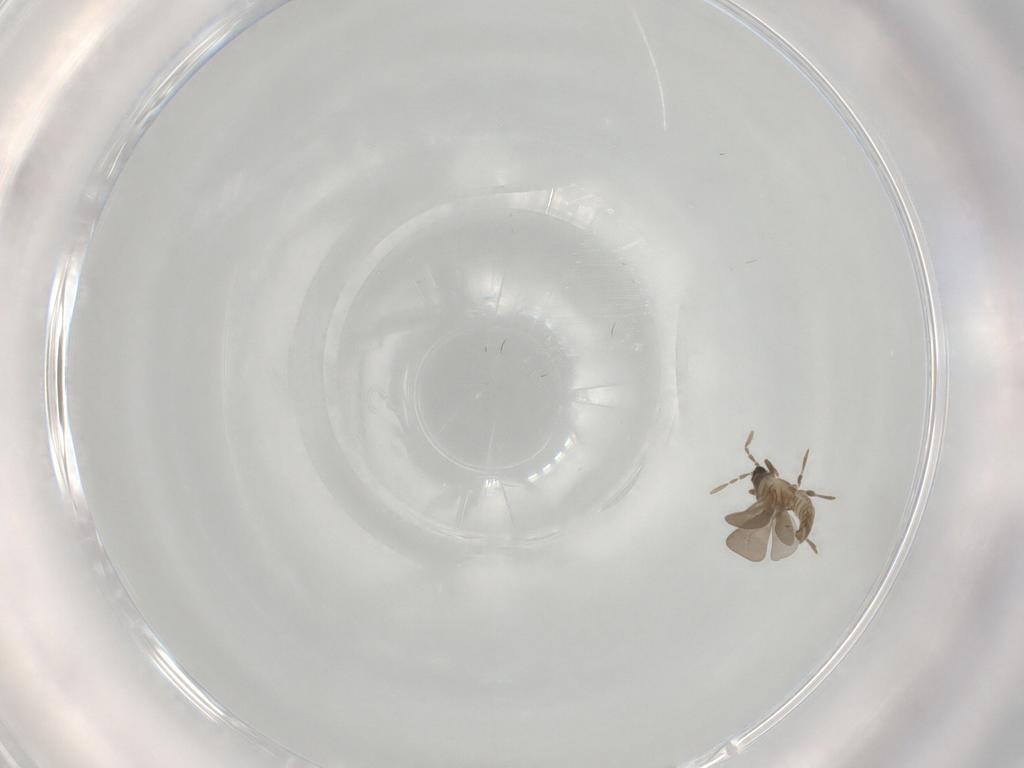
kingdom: Animalia
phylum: Arthropoda
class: Insecta
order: Hemiptera
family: Enicocephalidae
